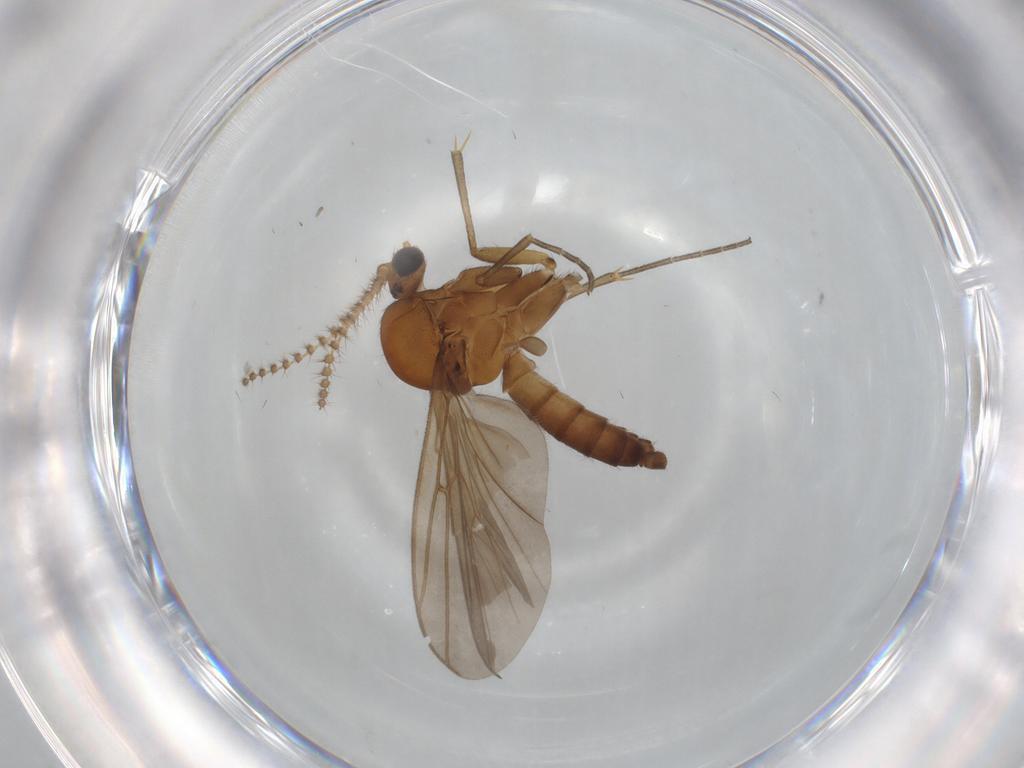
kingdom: Animalia
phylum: Arthropoda
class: Insecta
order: Diptera
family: Mycetophilidae
